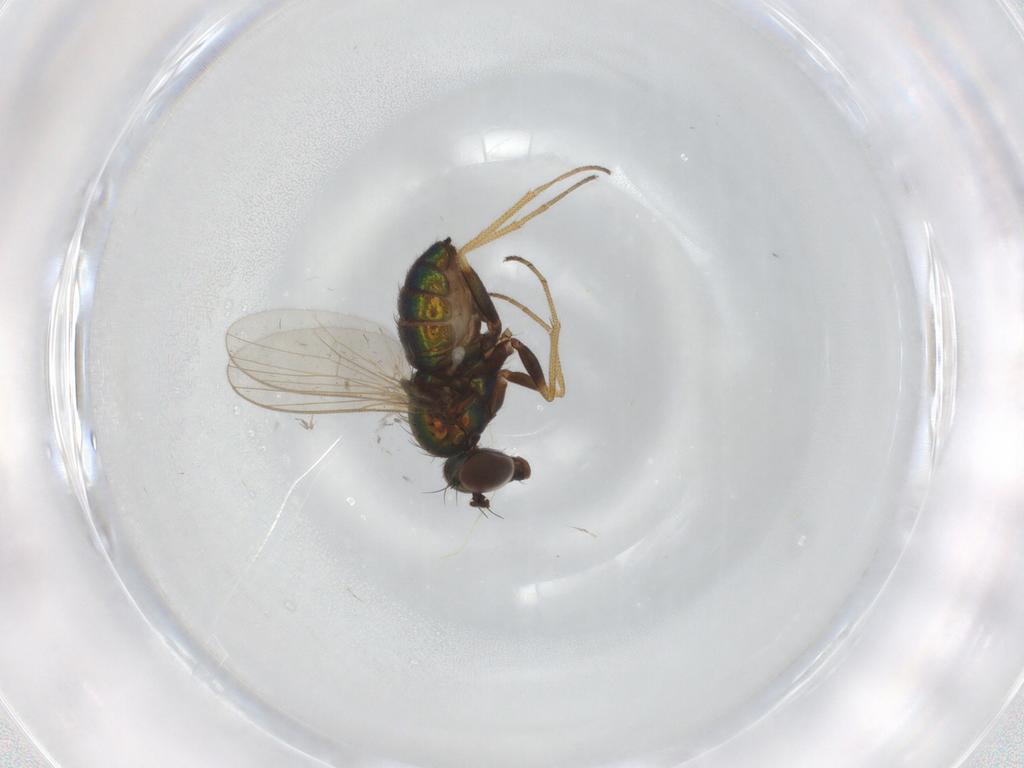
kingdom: Animalia
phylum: Arthropoda
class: Insecta
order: Diptera
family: Dolichopodidae
